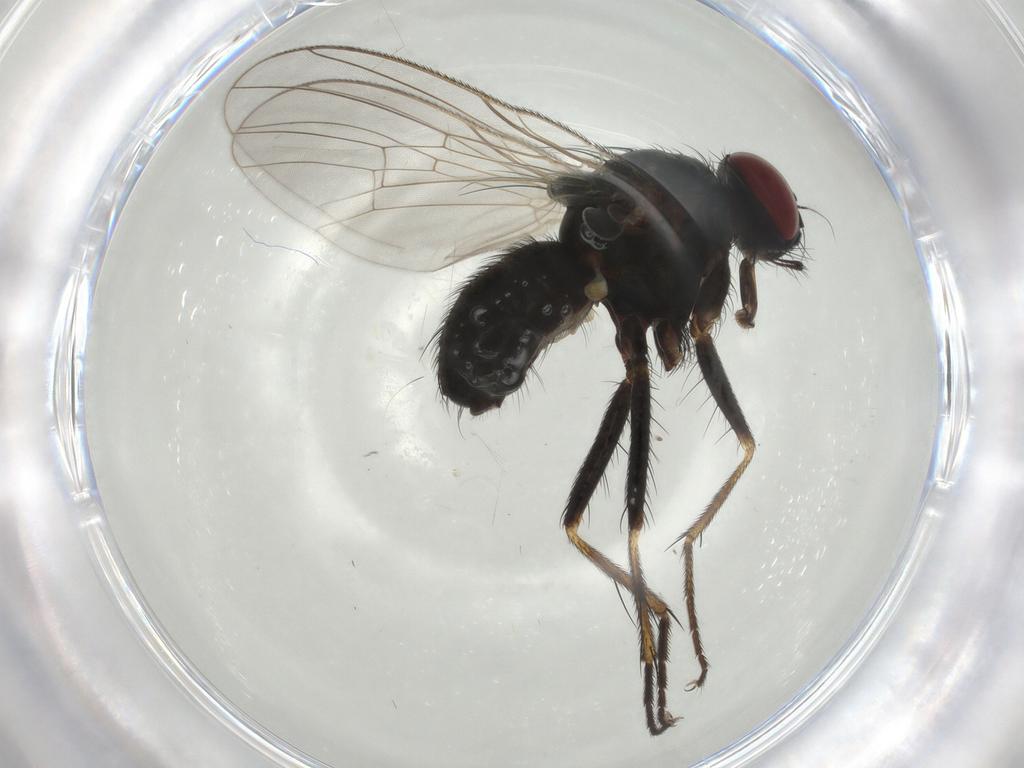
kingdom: Animalia
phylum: Arthropoda
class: Insecta
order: Diptera
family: Muscidae
